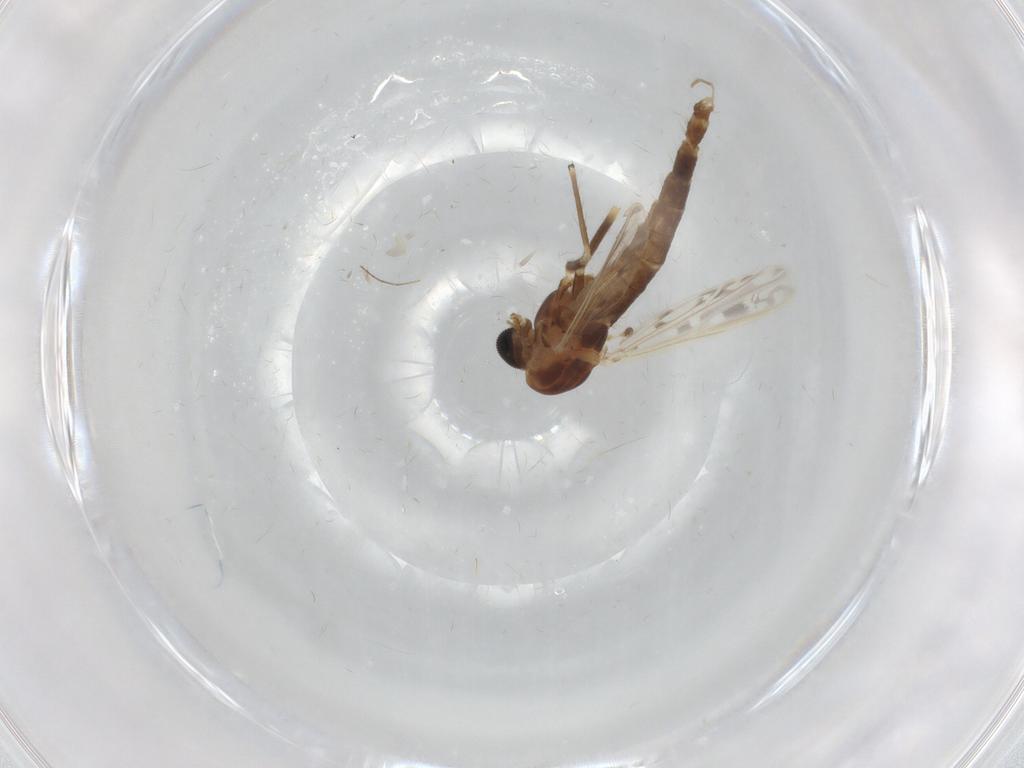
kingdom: Animalia
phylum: Arthropoda
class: Insecta
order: Diptera
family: Chironomidae
